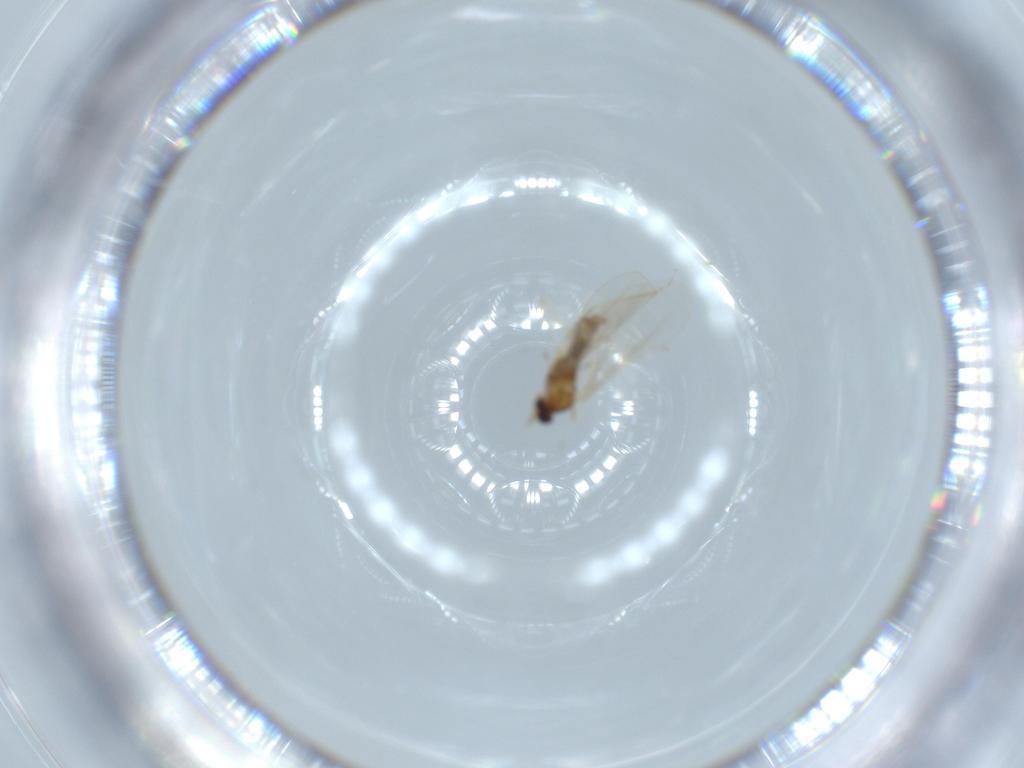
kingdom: Animalia
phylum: Arthropoda
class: Insecta
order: Diptera
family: Cecidomyiidae
